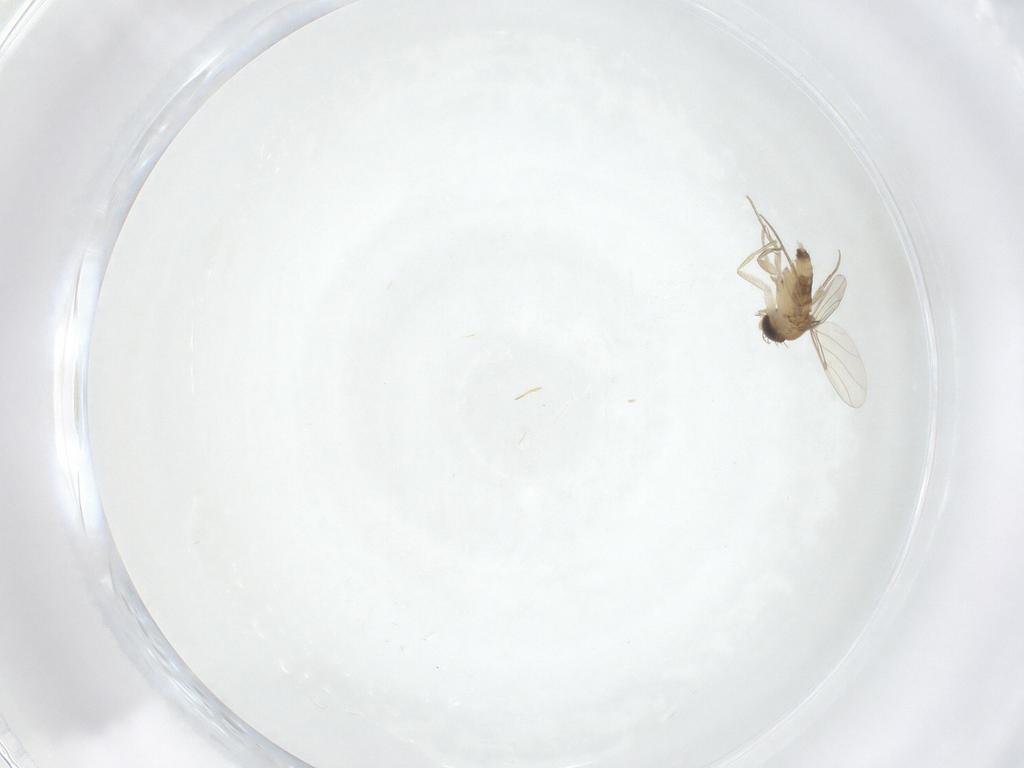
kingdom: Animalia
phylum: Arthropoda
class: Insecta
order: Diptera
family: Phoridae
